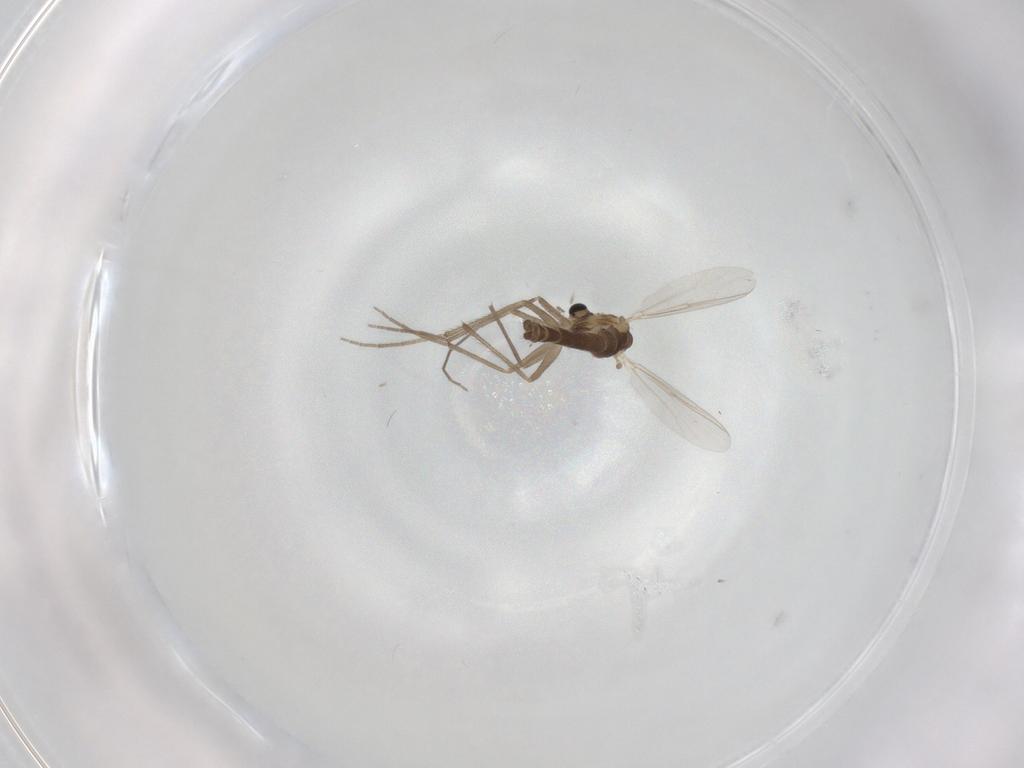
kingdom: Animalia
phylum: Arthropoda
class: Insecta
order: Diptera
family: Chironomidae
